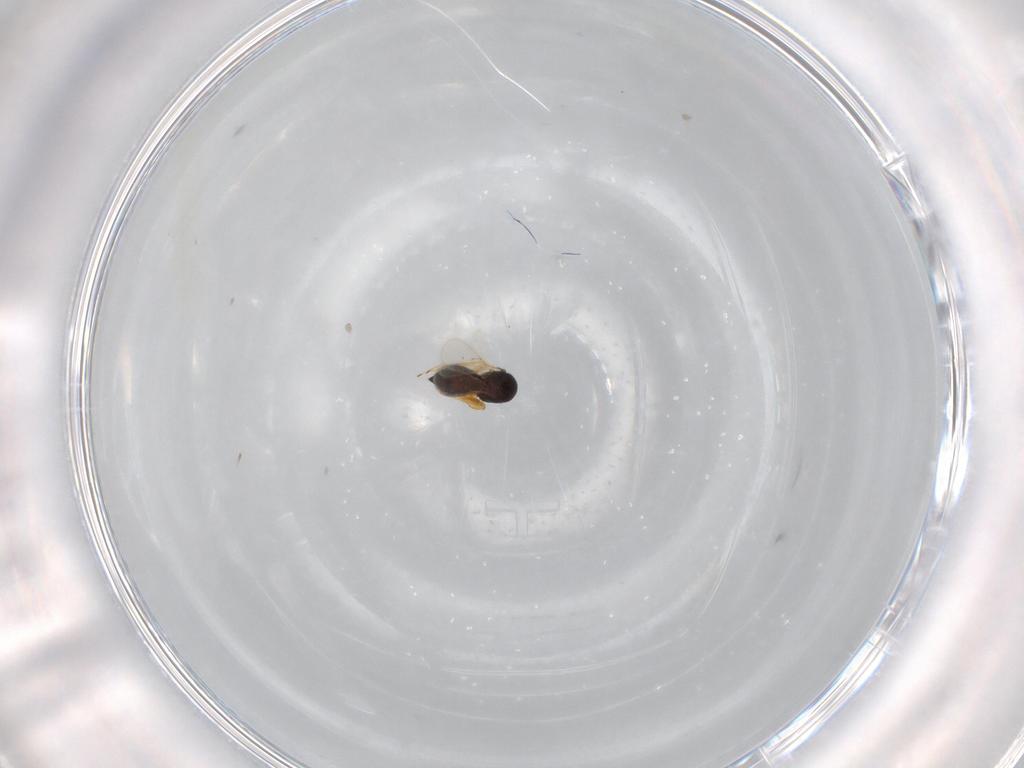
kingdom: Animalia
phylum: Arthropoda
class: Insecta
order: Hymenoptera
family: Scelionidae
